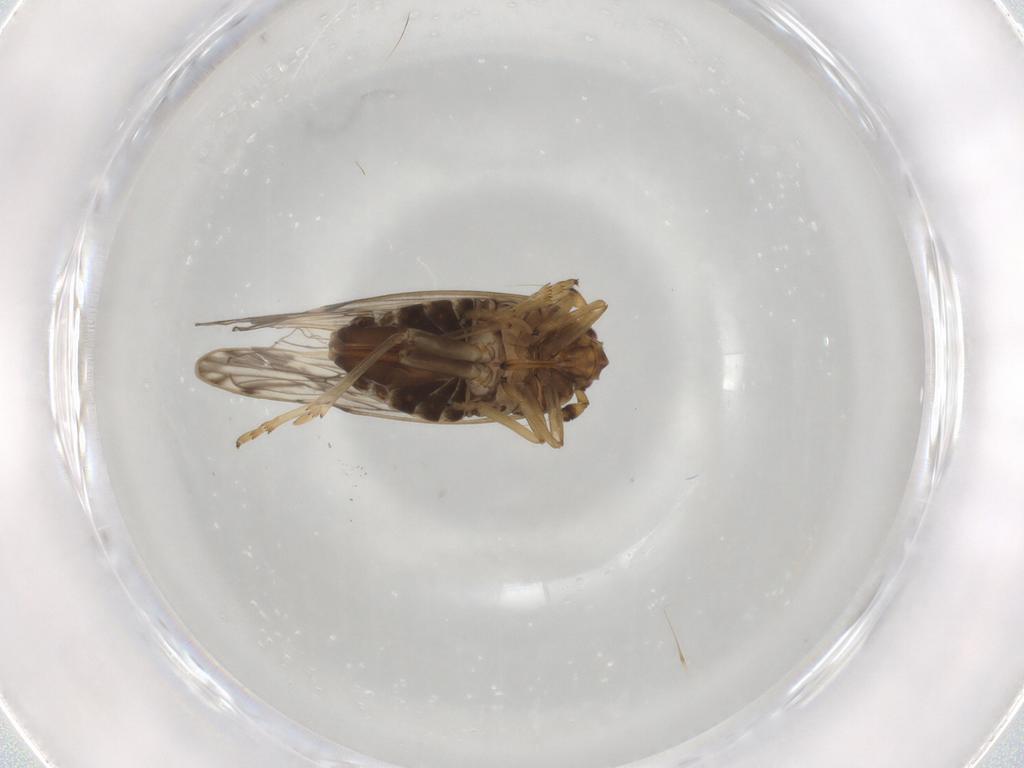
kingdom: Animalia
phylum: Arthropoda
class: Insecta
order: Hemiptera
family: Delphacidae
